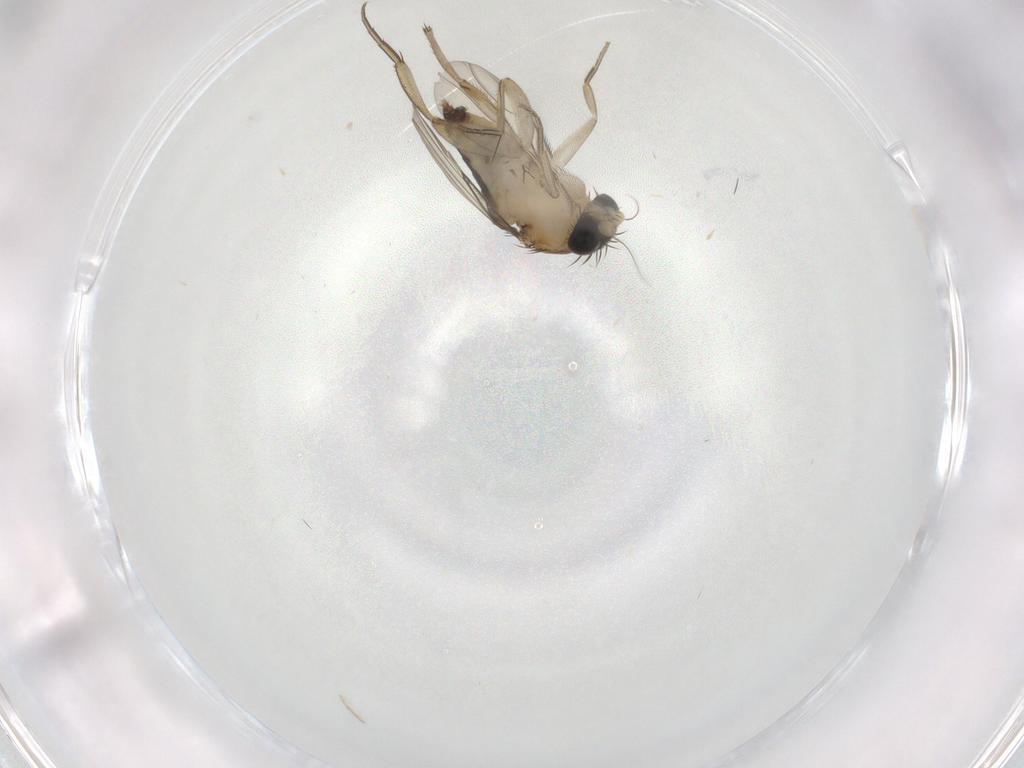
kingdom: Animalia
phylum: Arthropoda
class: Insecta
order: Diptera
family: Phoridae
